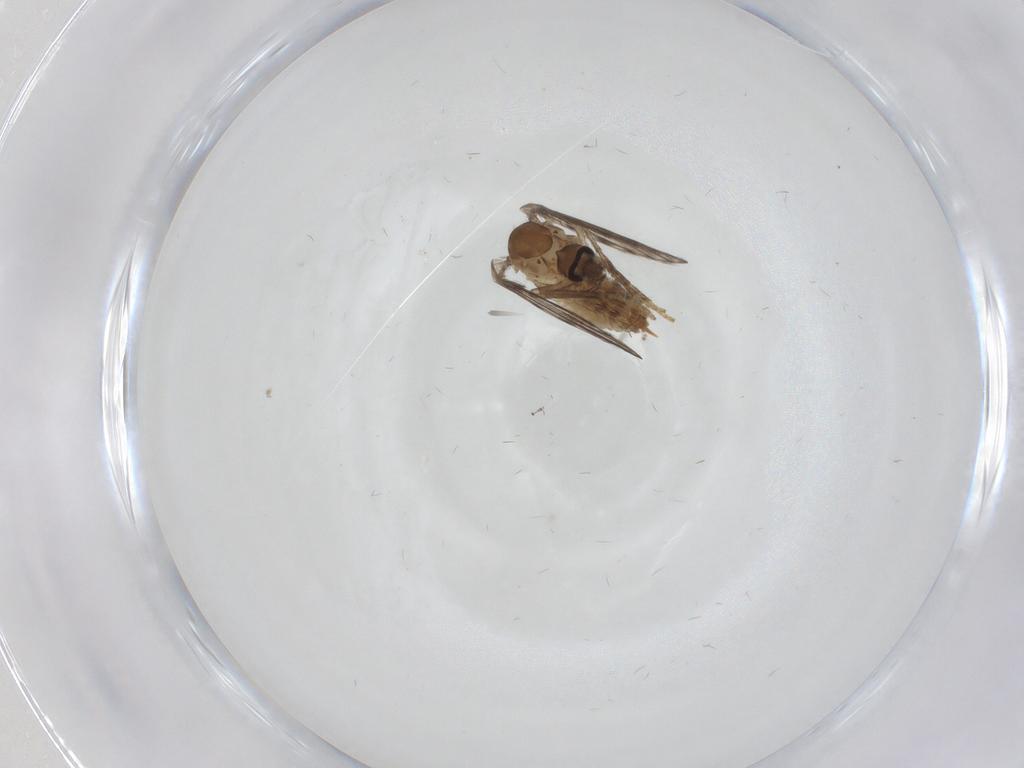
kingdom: Animalia
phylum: Arthropoda
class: Insecta
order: Diptera
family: Psychodidae
